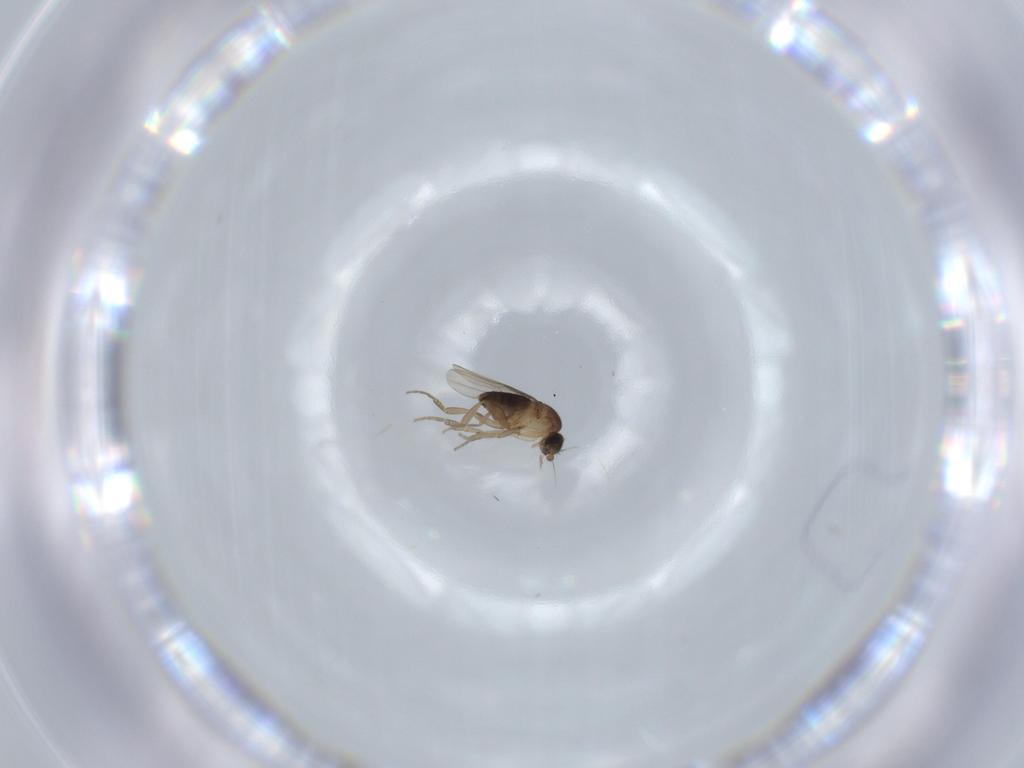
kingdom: Animalia
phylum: Arthropoda
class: Insecta
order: Diptera
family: Phoridae
